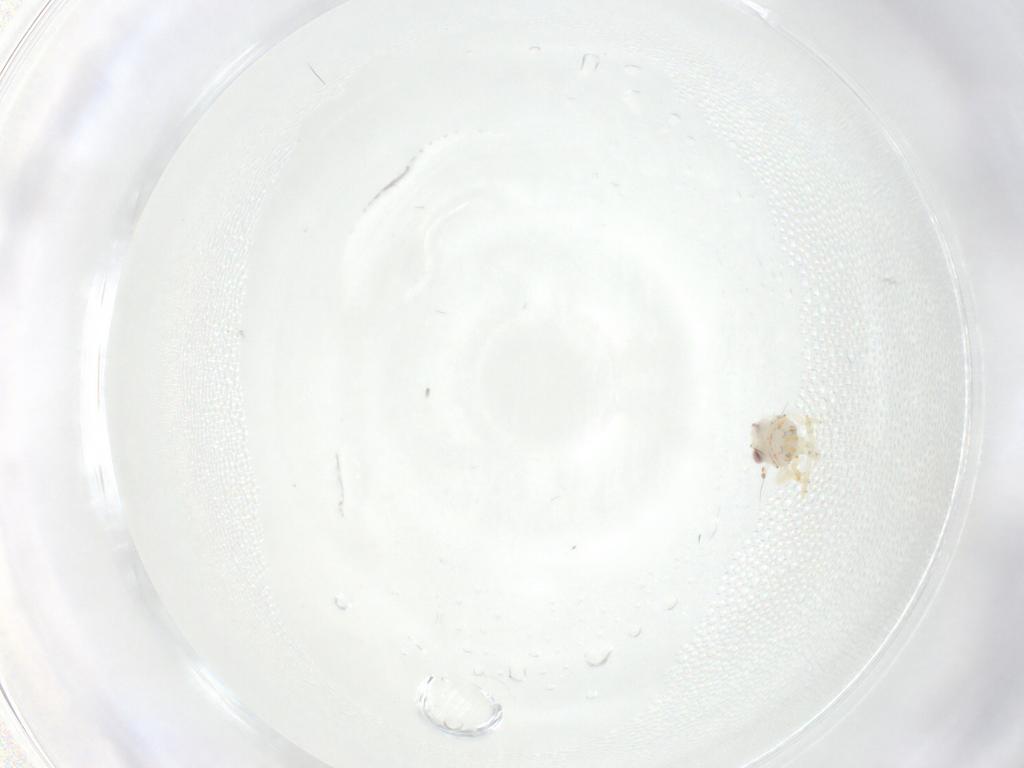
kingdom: Animalia
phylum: Arthropoda
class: Insecta
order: Hemiptera
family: Nogodinidae
